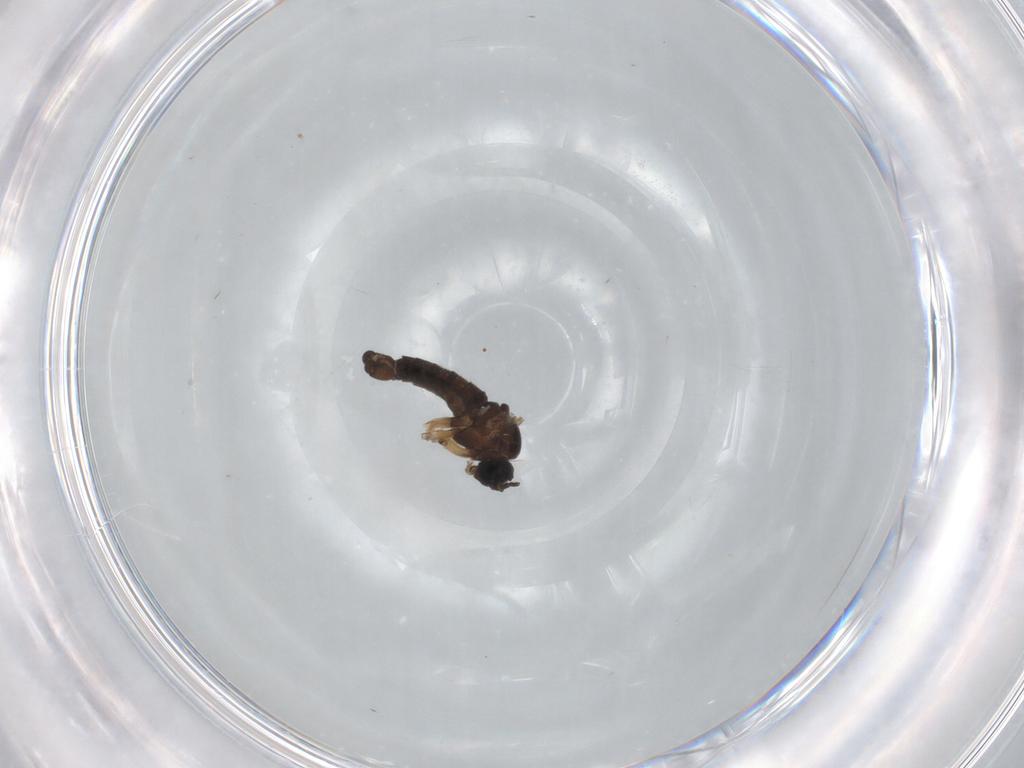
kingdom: Animalia
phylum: Arthropoda
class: Insecta
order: Diptera
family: Sciaridae
